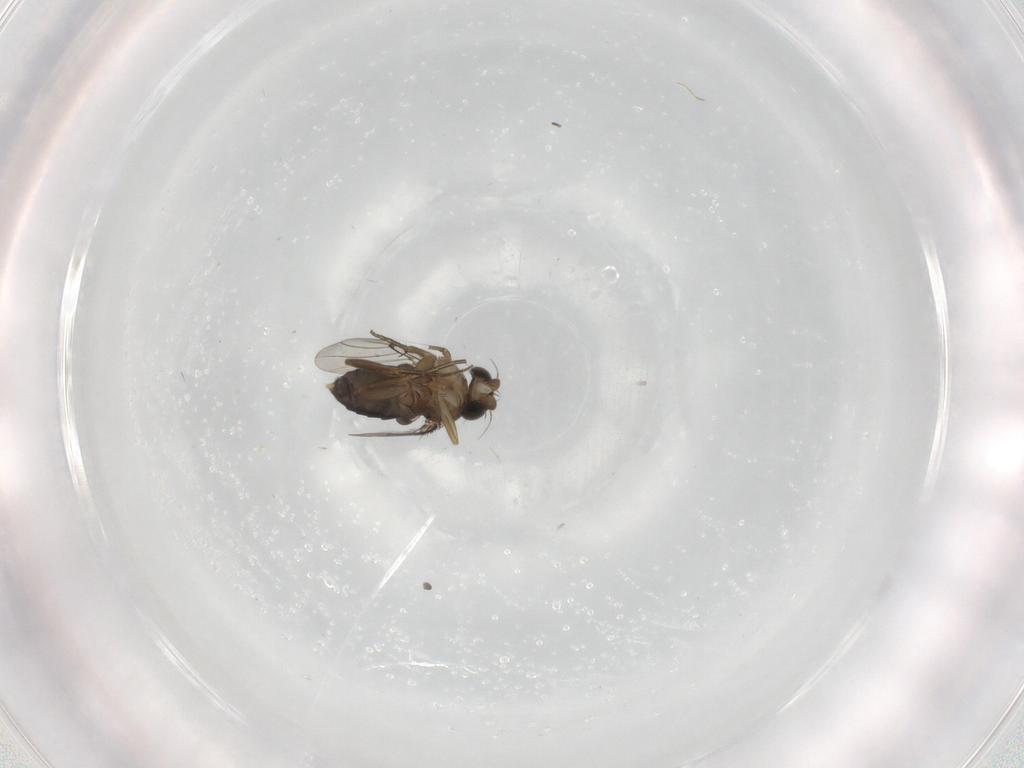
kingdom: Animalia
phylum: Arthropoda
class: Insecta
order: Diptera
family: Phoridae
